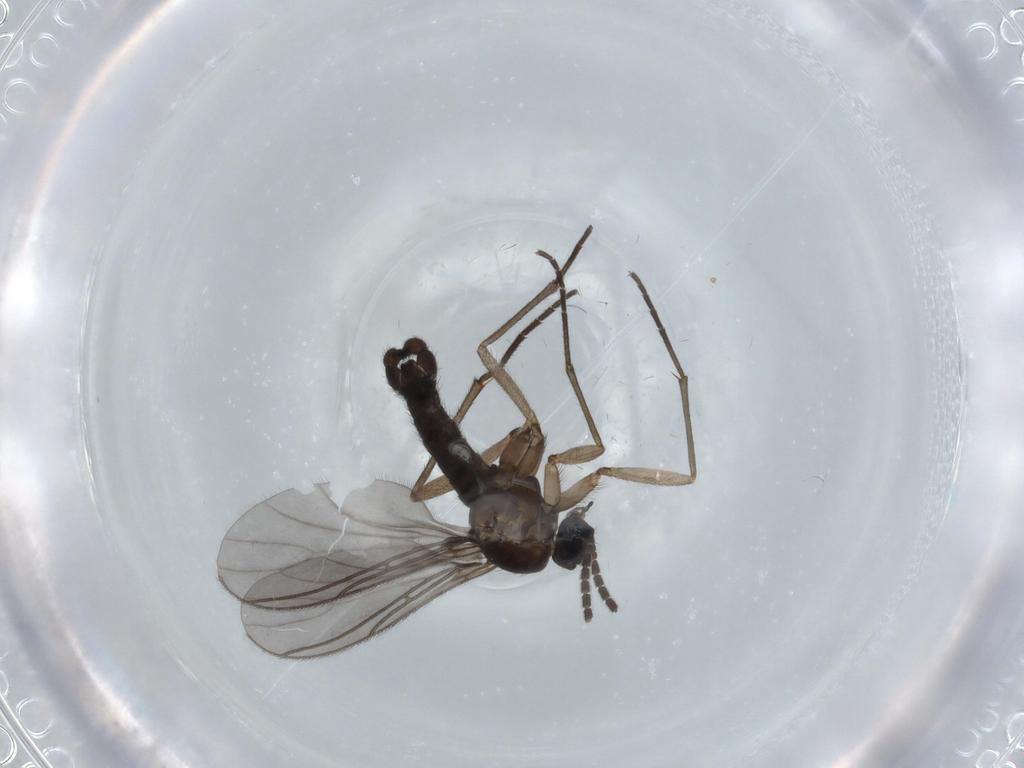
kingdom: Animalia
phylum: Arthropoda
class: Insecta
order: Diptera
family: Sciaridae
